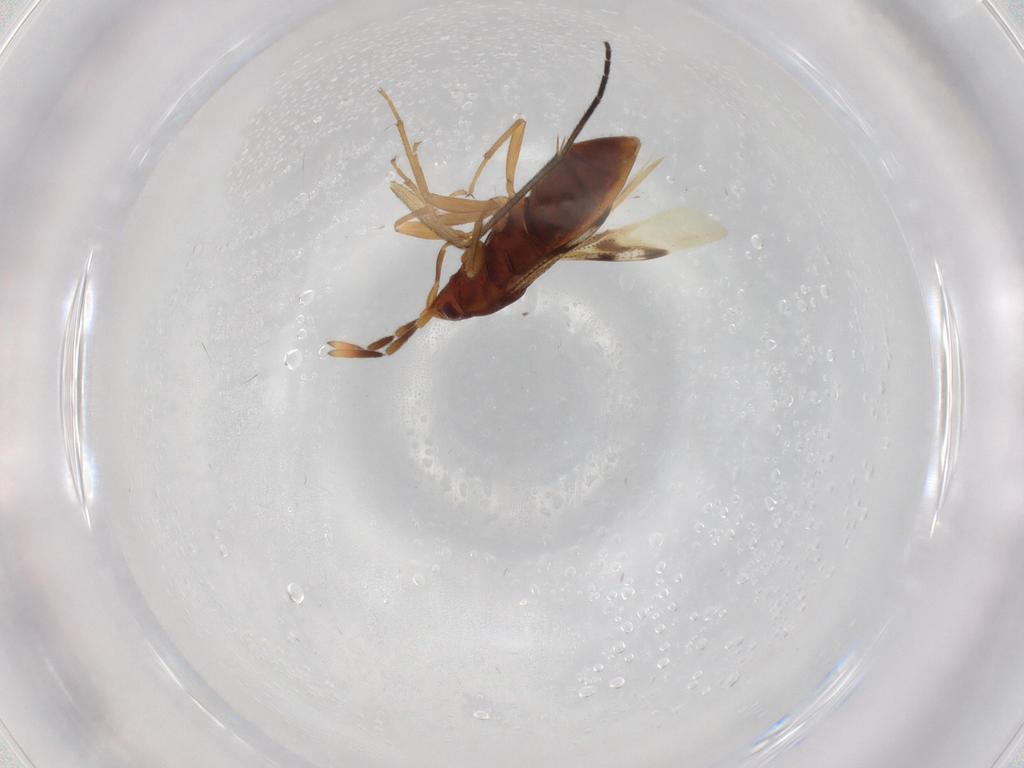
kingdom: Animalia
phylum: Arthropoda
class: Insecta
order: Hemiptera
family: Rhyparochromidae
